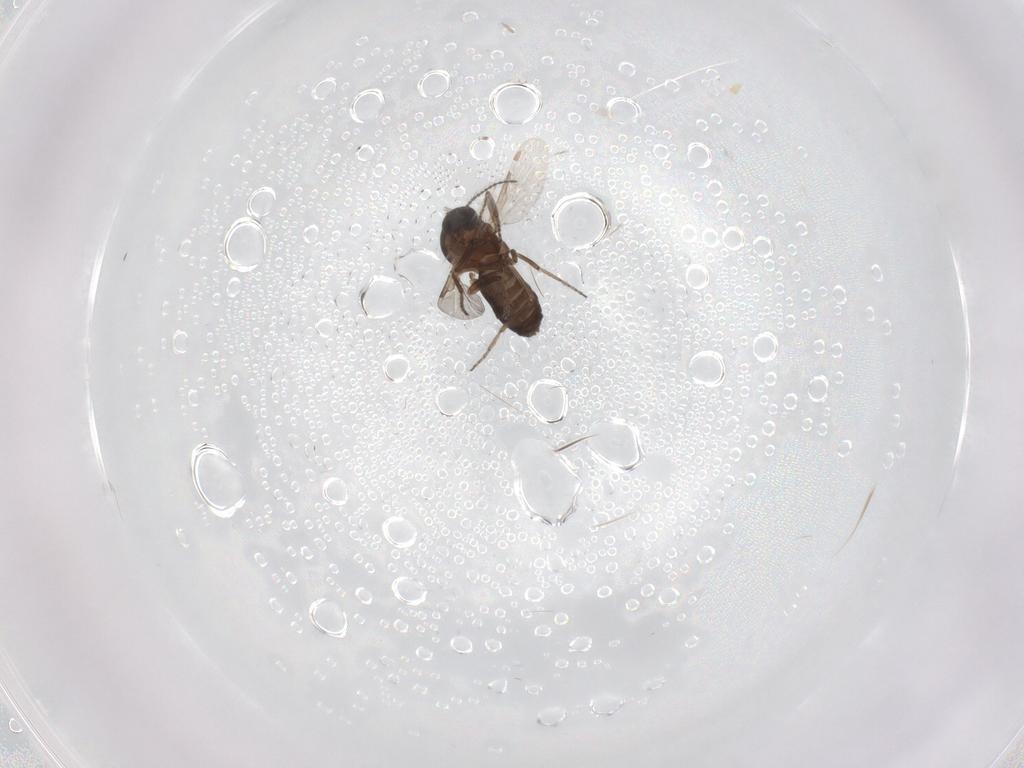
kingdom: Animalia
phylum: Arthropoda
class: Insecta
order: Diptera
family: Ceratopogonidae
